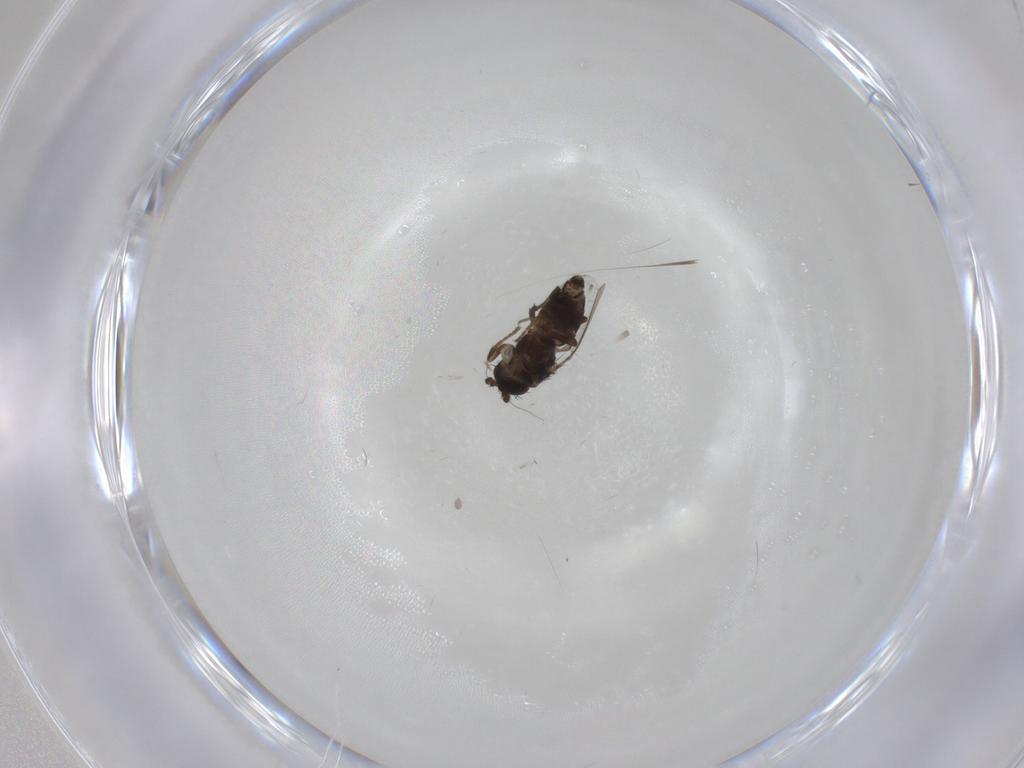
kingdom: Animalia
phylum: Arthropoda
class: Insecta
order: Diptera
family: Sphaeroceridae
